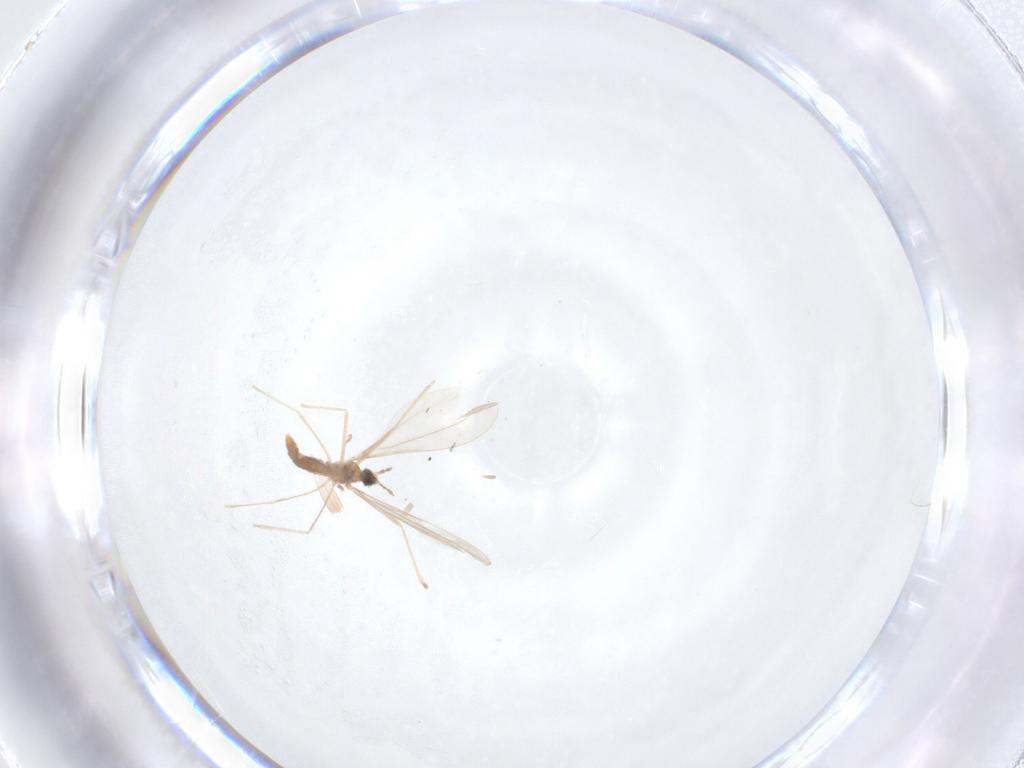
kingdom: Animalia
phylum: Arthropoda
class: Insecta
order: Diptera
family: Cecidomyiidae
